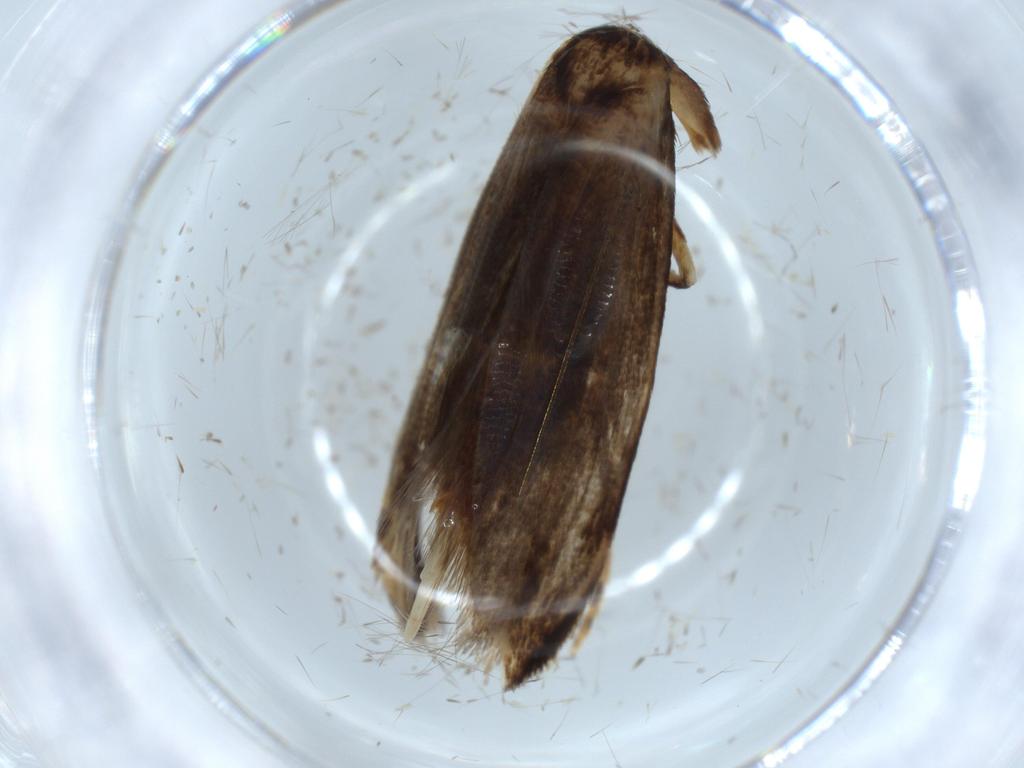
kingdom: Animalia
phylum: Arthropoda
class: Insecta
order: Lepidoptera
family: Tineidae
